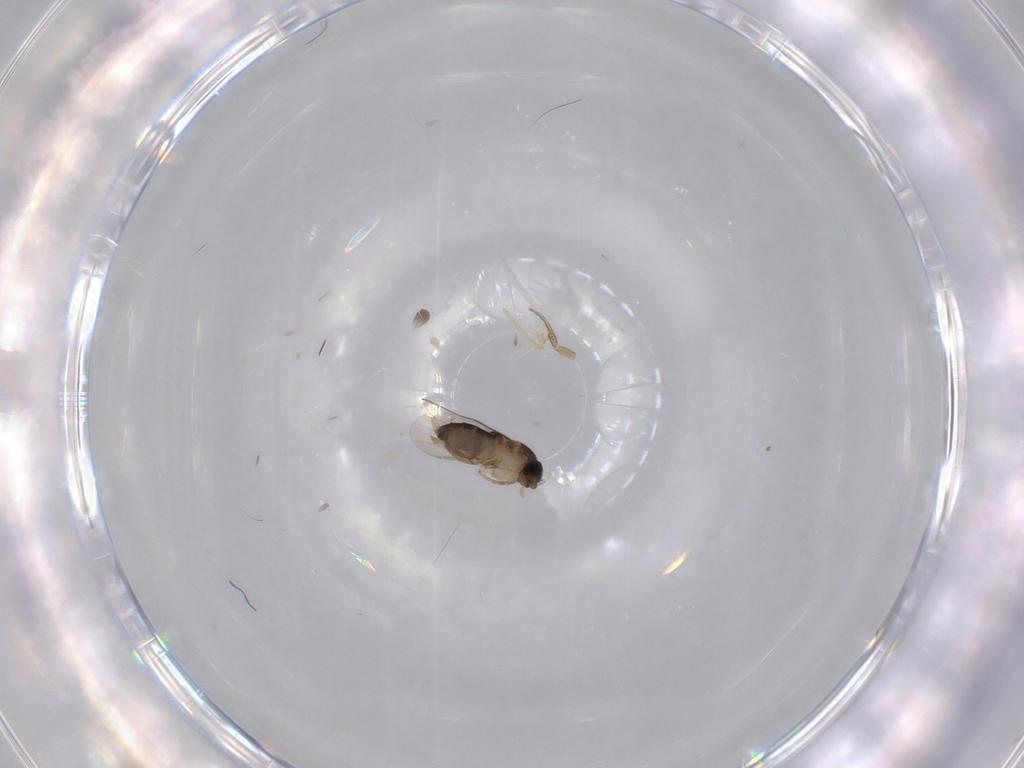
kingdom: Animalia
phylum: Arthropoda
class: Insecta
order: Diptera
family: Phoridae
